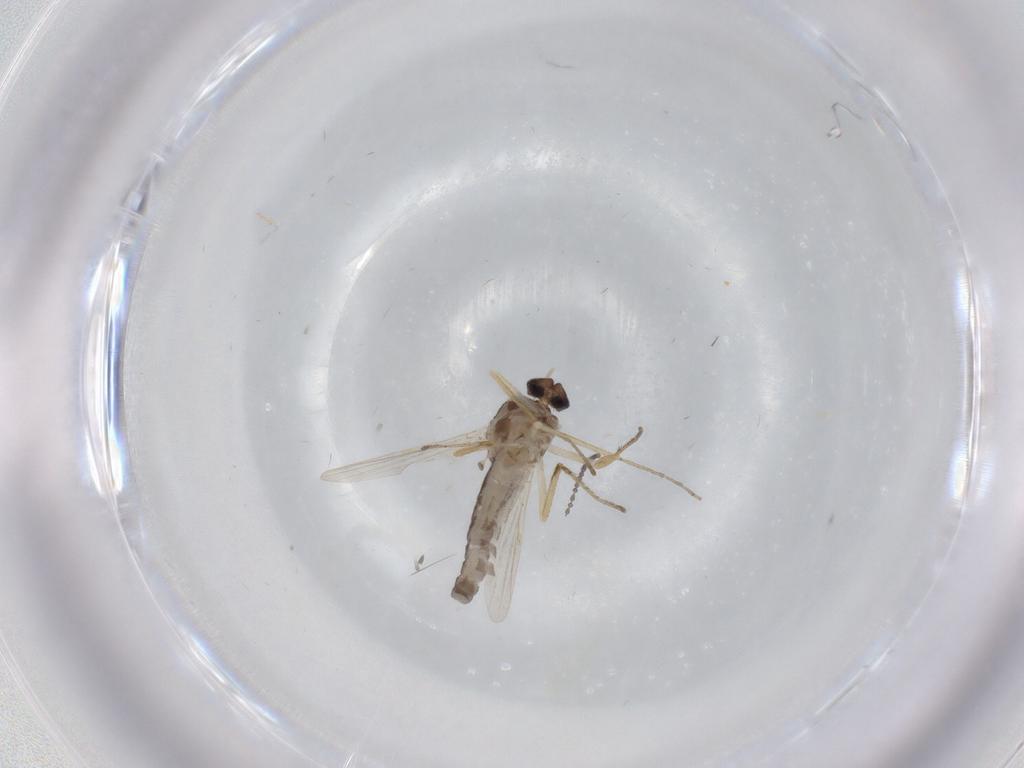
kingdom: Animalia
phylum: Arthropoda
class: Insecta
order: Diptera
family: Ceratopogonidae
